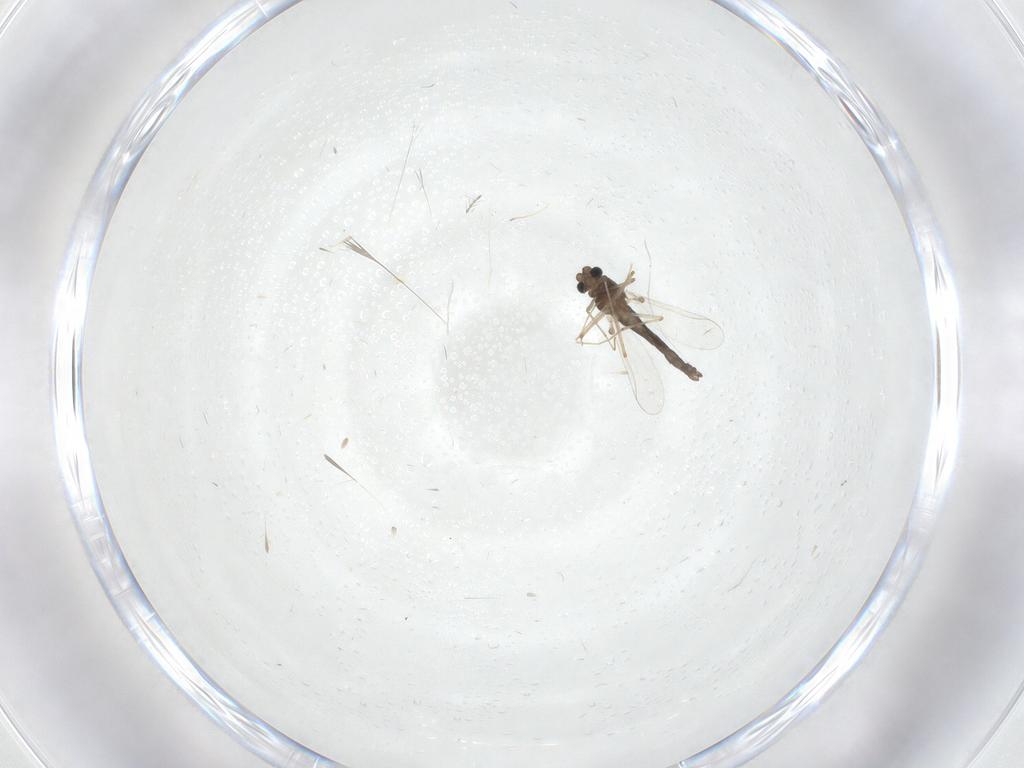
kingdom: Animalia
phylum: Arthropoda
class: Insecta
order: Diptera
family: Chironomidae
